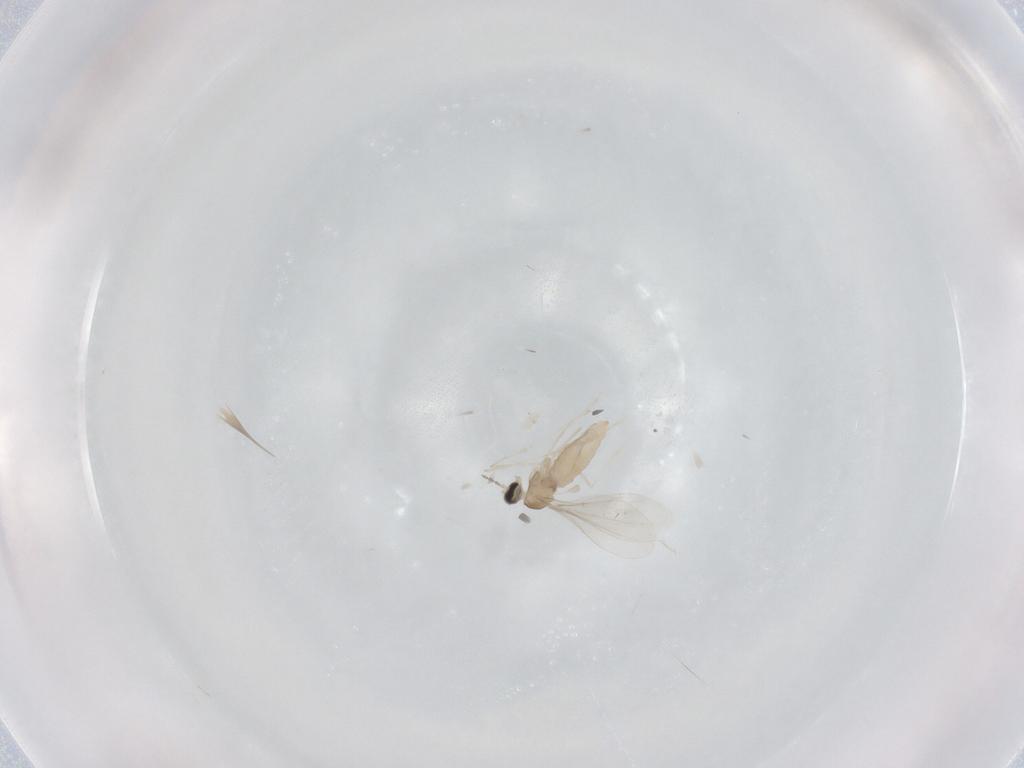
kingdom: Animalia
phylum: Arthropoda
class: Insecta
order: Diptera
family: Cecidomyiidae
